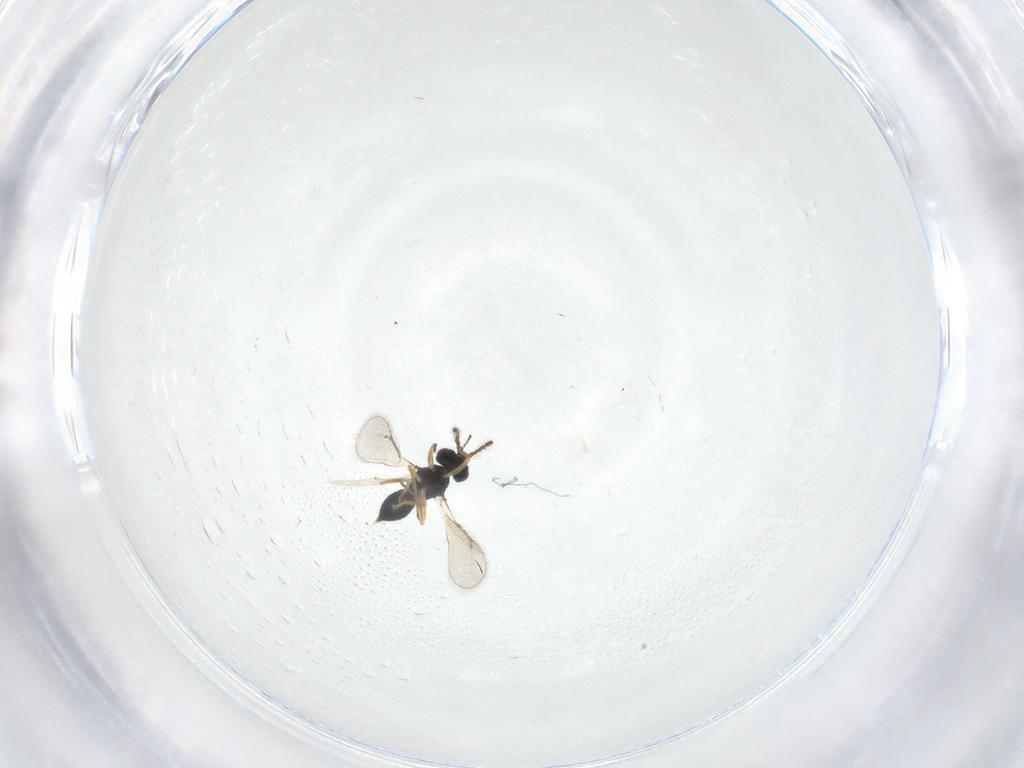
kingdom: Animalia
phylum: Arthropoda
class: Insecta
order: Hymenoptera
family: Eulophidae
